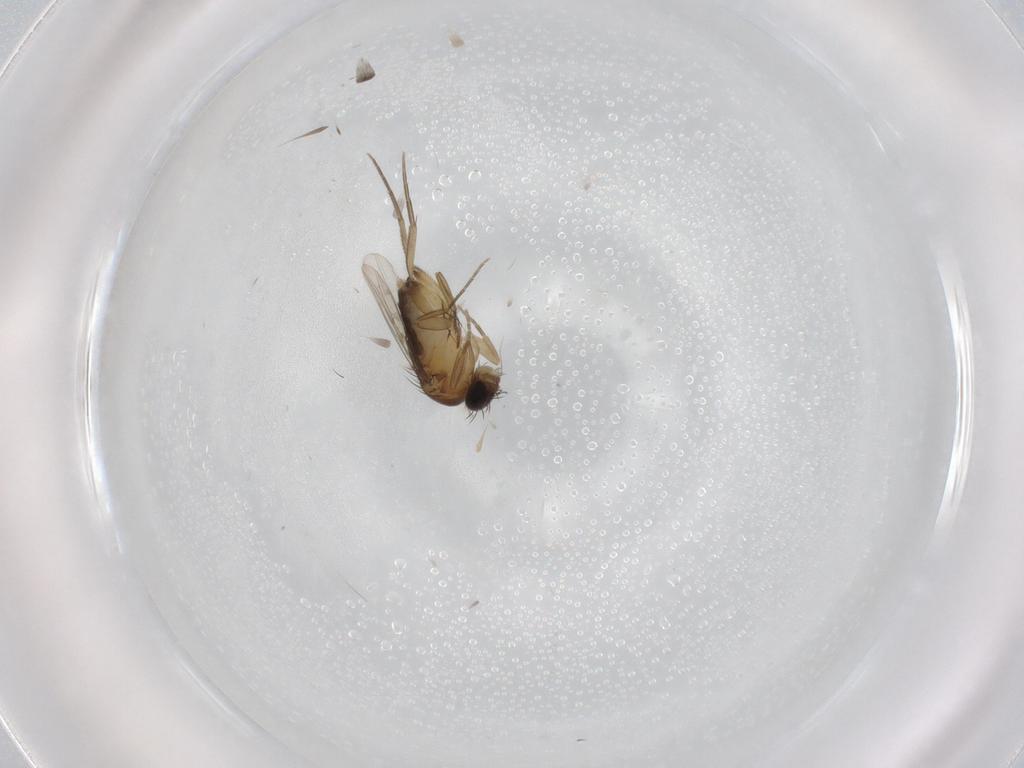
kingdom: Animalia
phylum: Arthropoda
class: Insecta
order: Diptera
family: Phoridae
